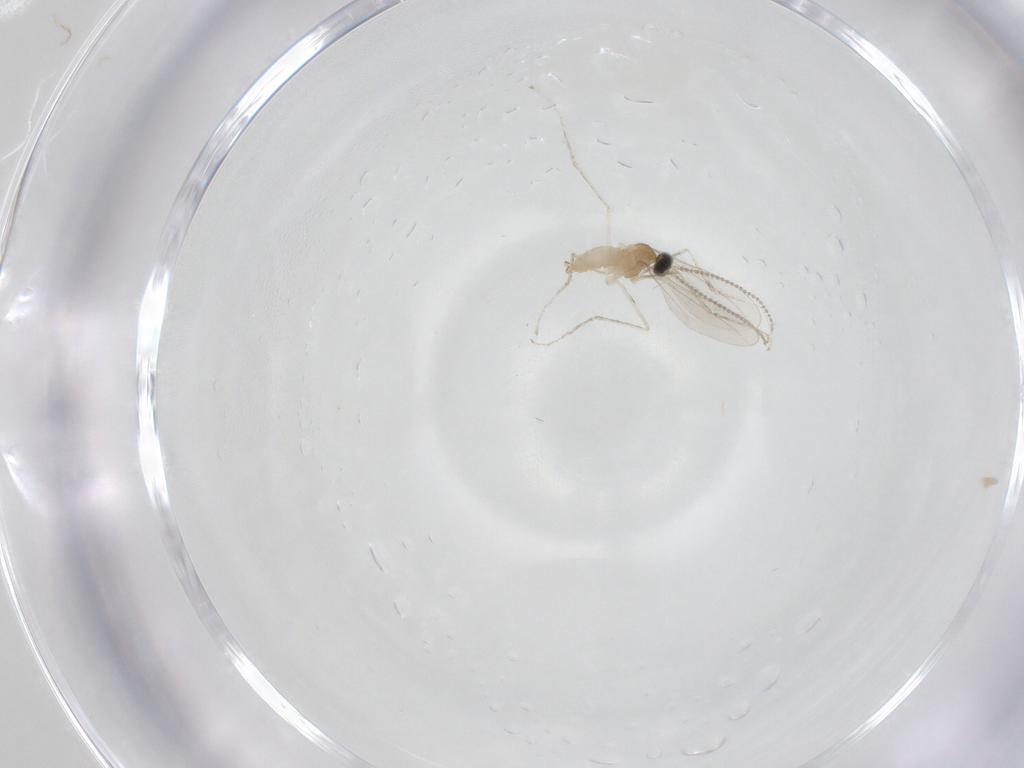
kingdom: Animalia
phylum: Arthropoda
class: Insecta
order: Diptera
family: Cecidomyiidae
